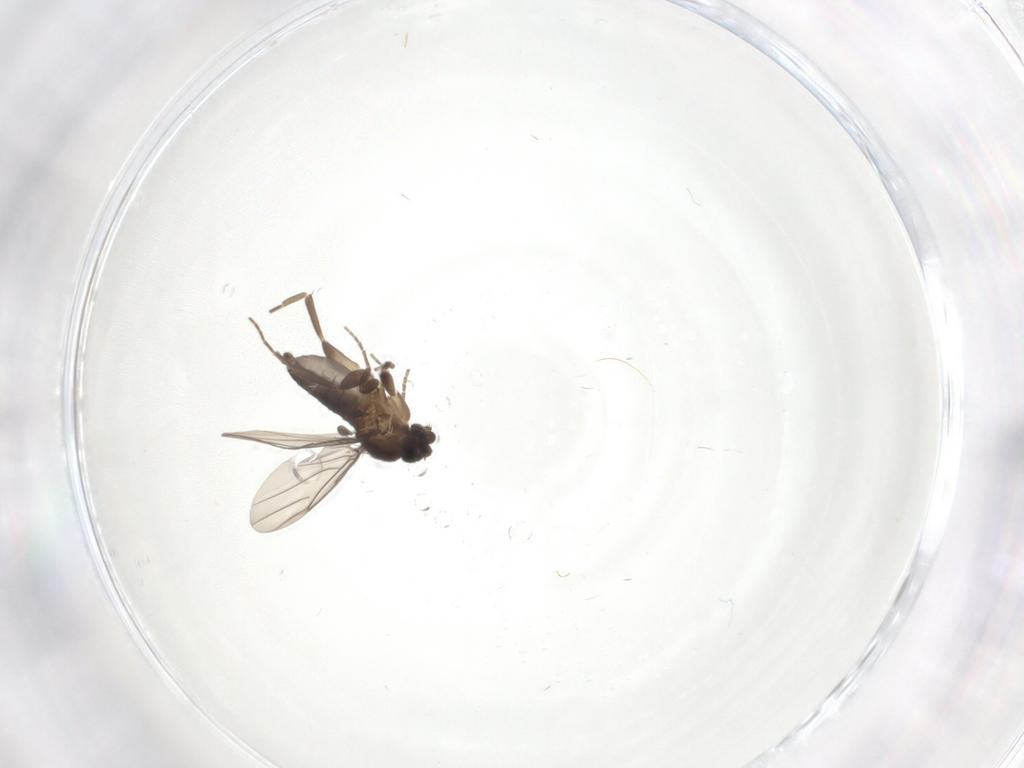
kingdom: Animalia
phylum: Arthropoda
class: Insecta
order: Diptera
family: Phoridae
